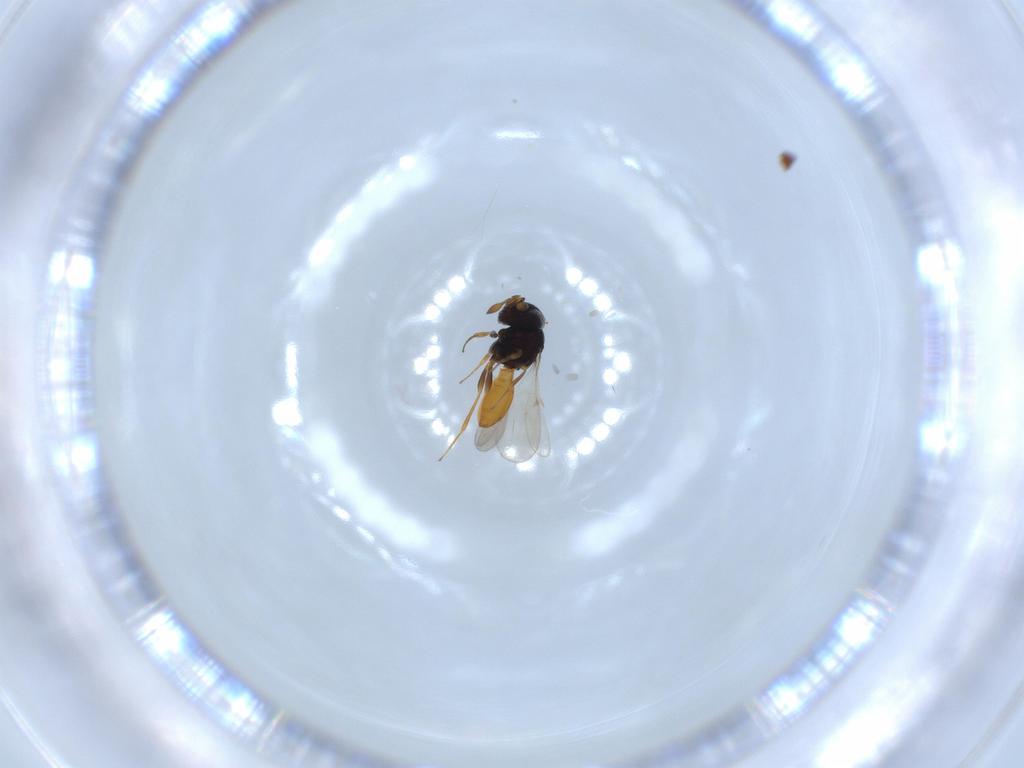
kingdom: Animalia
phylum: Arthropoda
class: Insecta
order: Hymenoptera
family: Scelionidae
